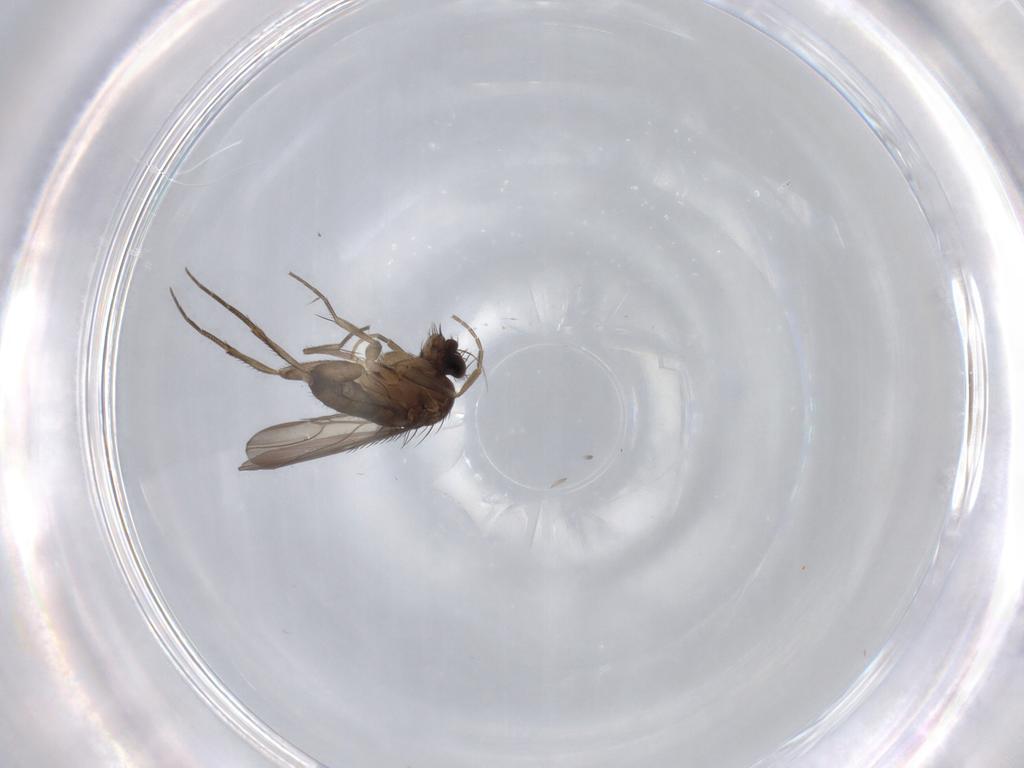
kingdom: Animalia
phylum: Arthropoda
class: Insecta
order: Diptera
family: Phoridae
